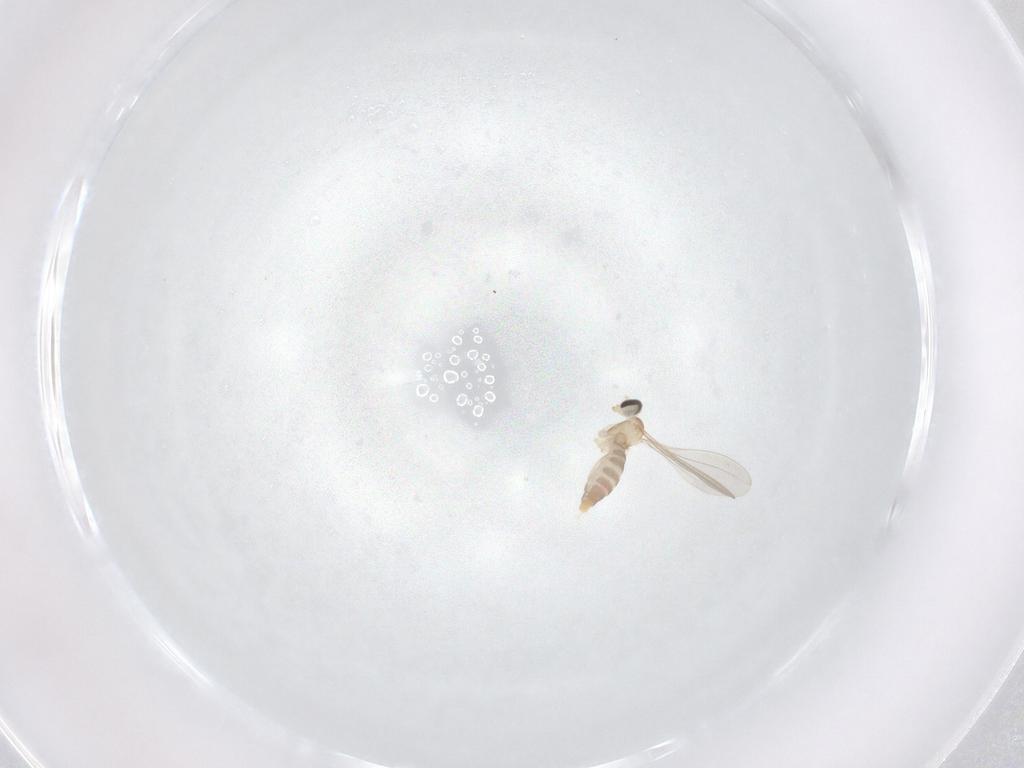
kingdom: Animalia
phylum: Arthropoda
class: Insecta
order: Diptera
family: Cecidomyiidae
